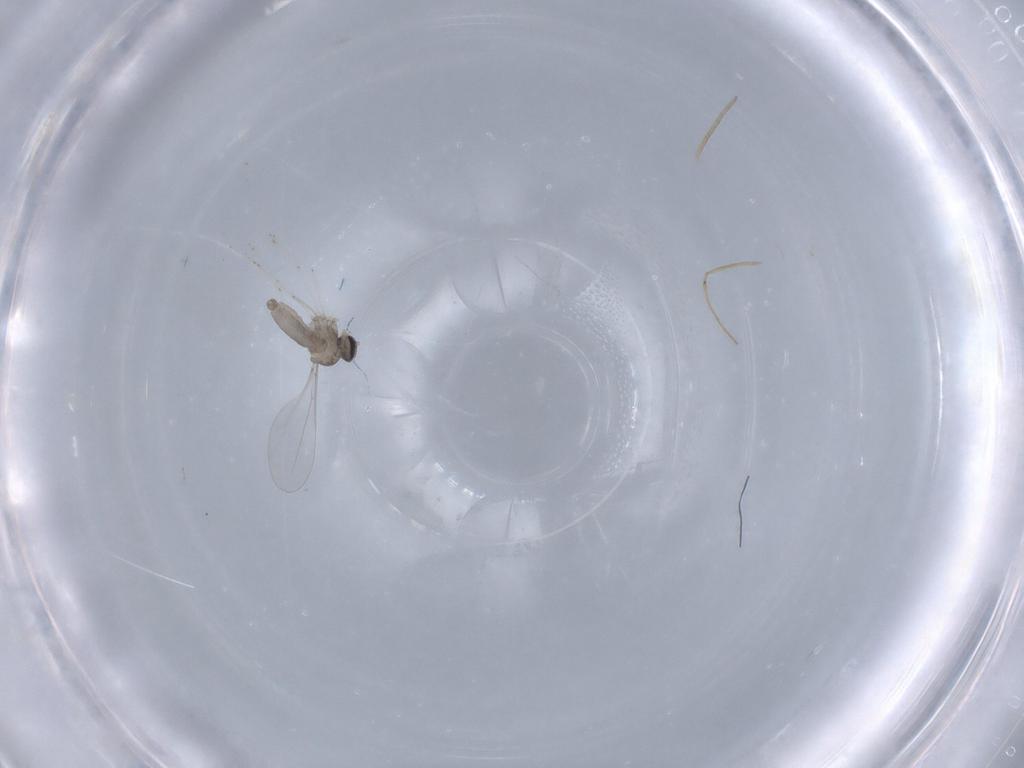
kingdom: Animalia
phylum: Arthropoda
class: Insecta
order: Diptera
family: Cecidomyiidae
